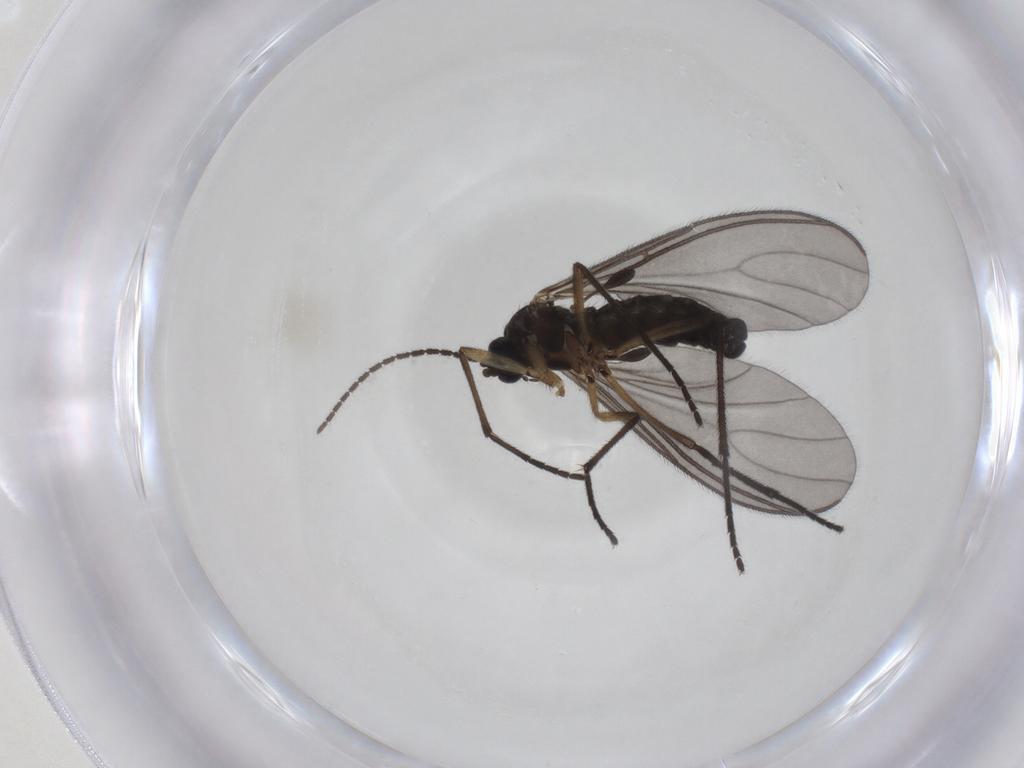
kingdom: Animalia
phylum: Arthropoda
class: Insecta
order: Diptera
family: Sciaridae
